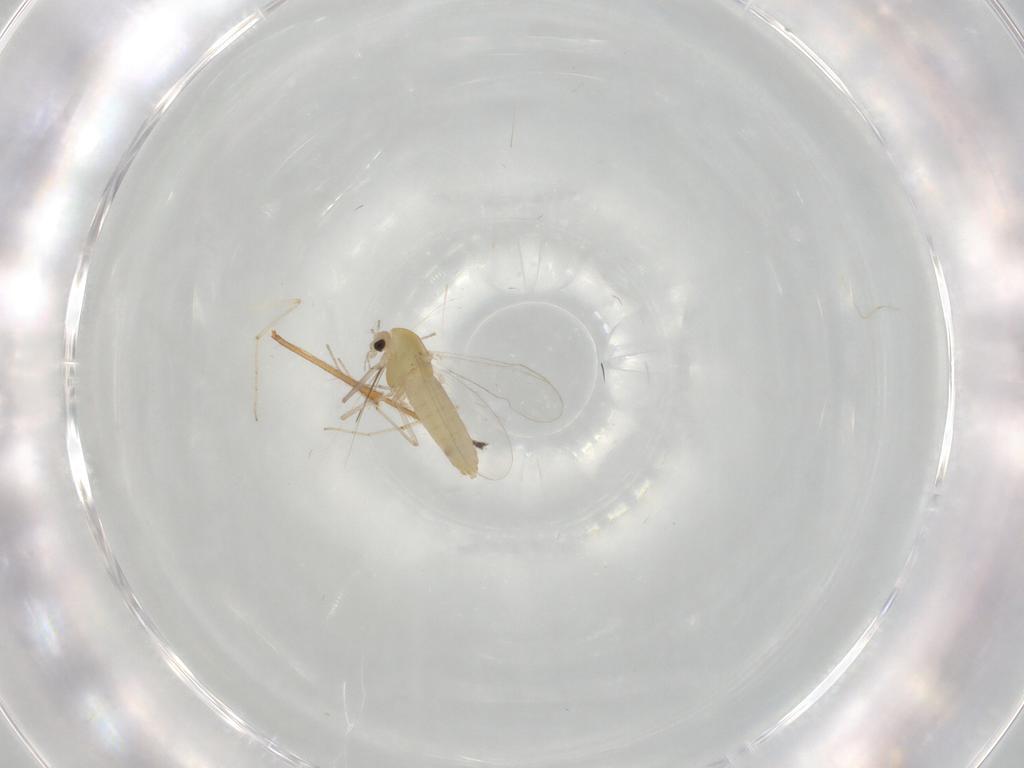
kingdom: Animalia
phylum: Arthropoda
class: Insecta
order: Diptera
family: Chironomidae
